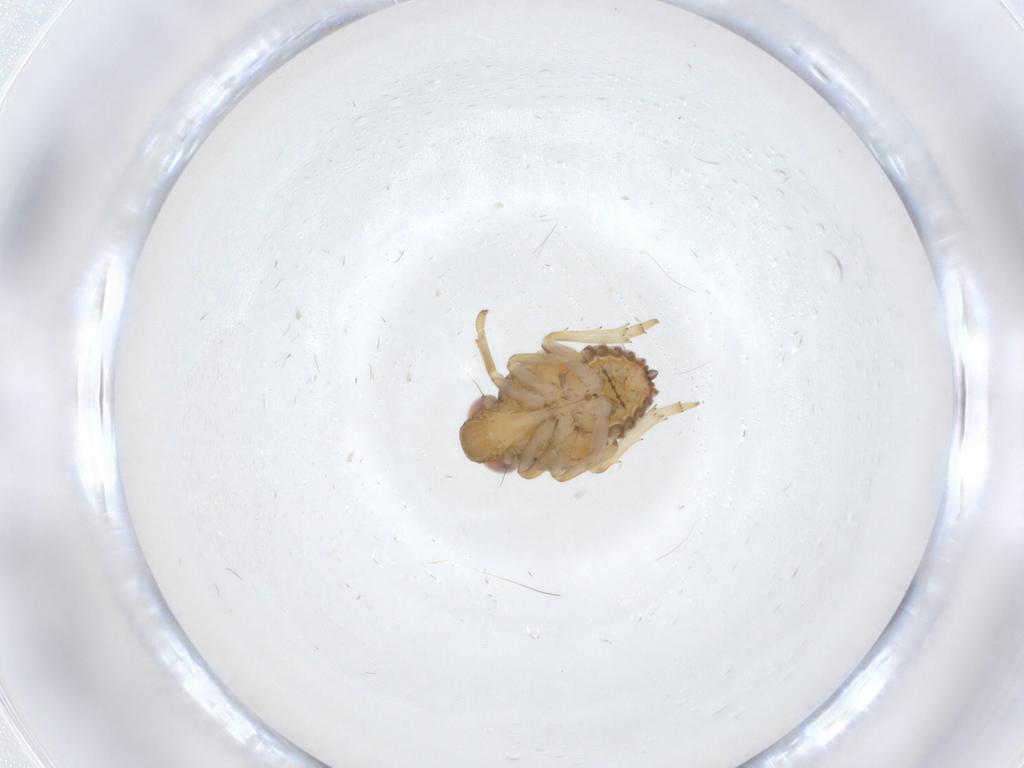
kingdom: Animalia
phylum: Arthropoda
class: Insecta
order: Hemiptera
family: Issidae
